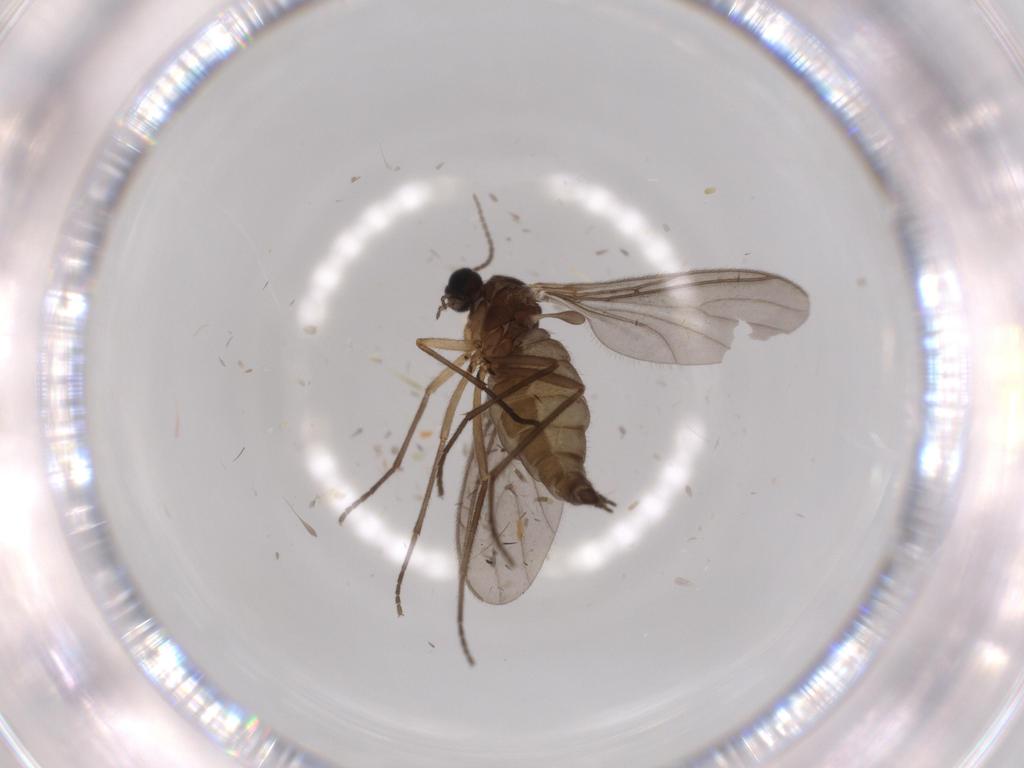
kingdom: Animalia
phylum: Arthropoda
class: Insecta
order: Diptera
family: Sciaridae
